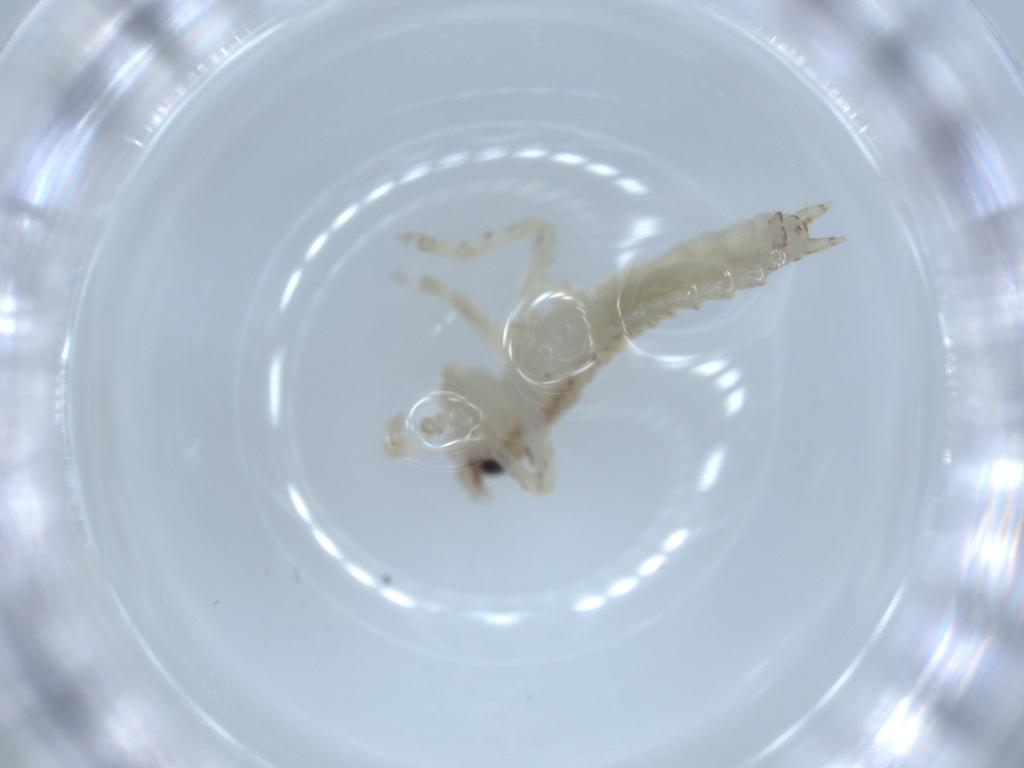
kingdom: Animalia
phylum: Arthropoda
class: Insecta
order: Orthoptera
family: Gryllidae
